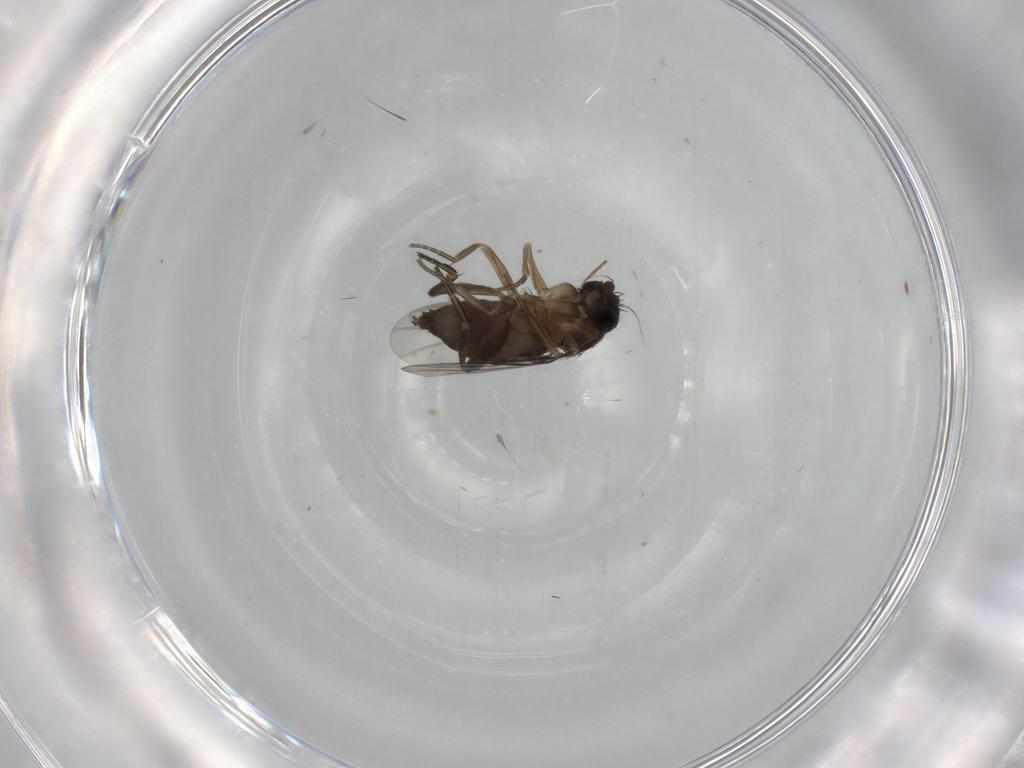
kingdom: Animalia
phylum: Arthropoda
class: Insecta
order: Diptera
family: Phoridae
